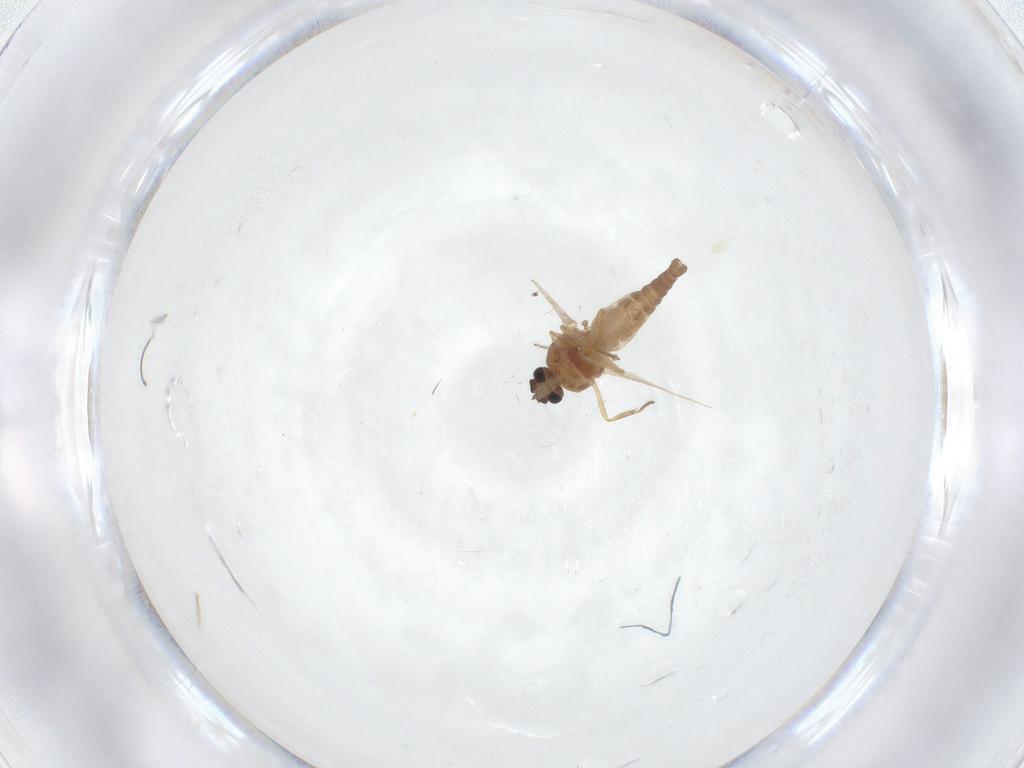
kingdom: Animalia
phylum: Arthropoda
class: Insecta
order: Diptera
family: Ceratopogonidae
